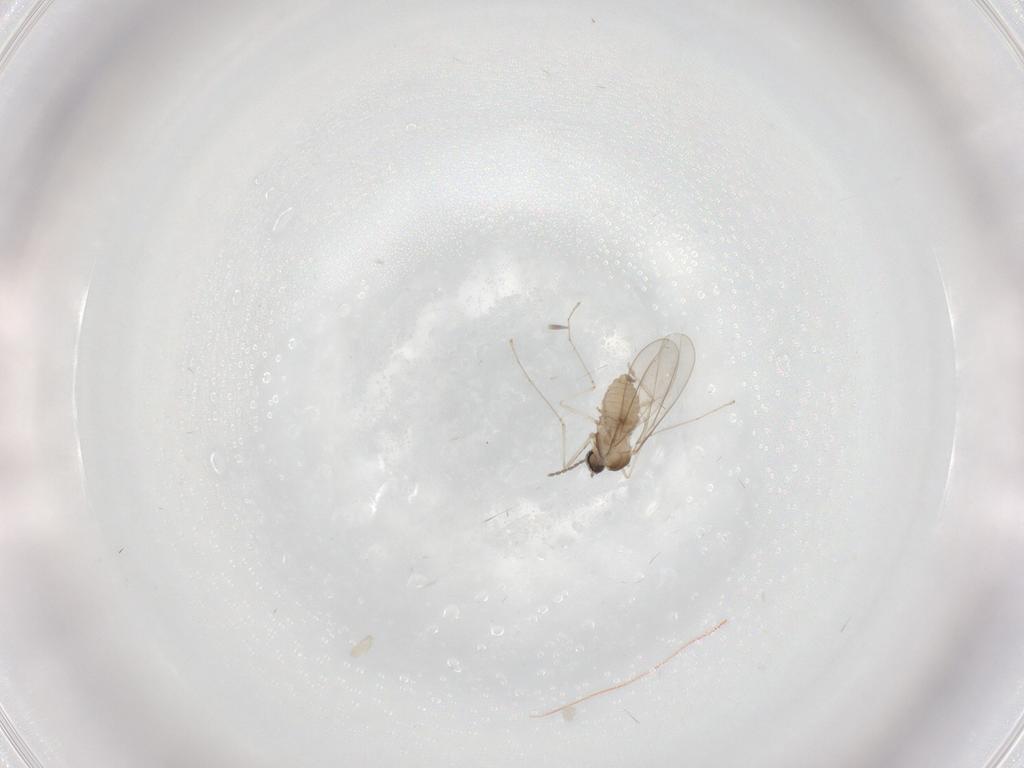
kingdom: Animalia
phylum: Arthropoda
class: Insecta
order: Diptera
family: Cecidomyiidae
